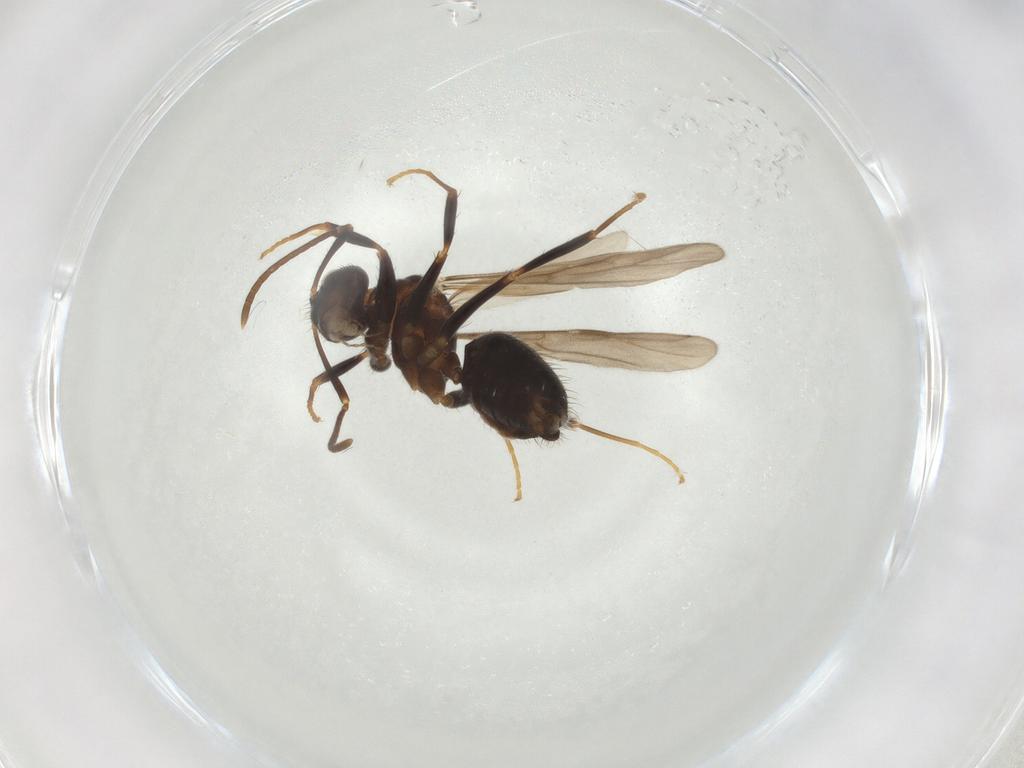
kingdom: Animalia
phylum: Arthropoda
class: Insecta
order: Hymenoptera
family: Formicidae
